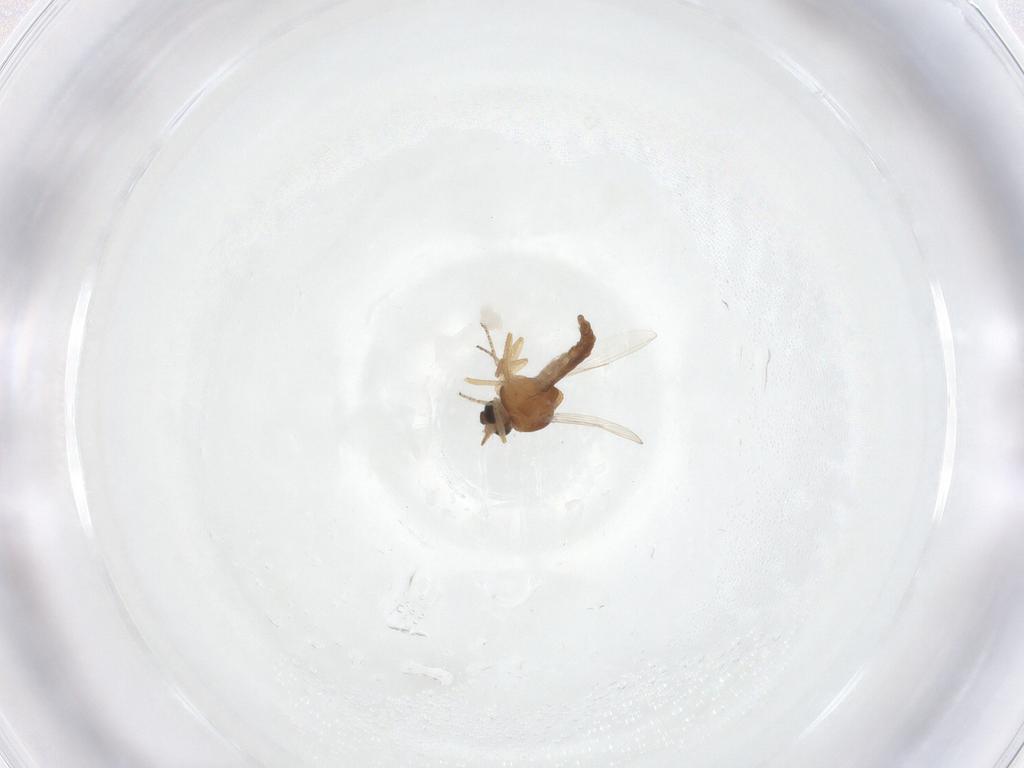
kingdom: Animalia
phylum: Arthropoda
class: Insecta
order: Diptera
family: Ceratopogonidae
